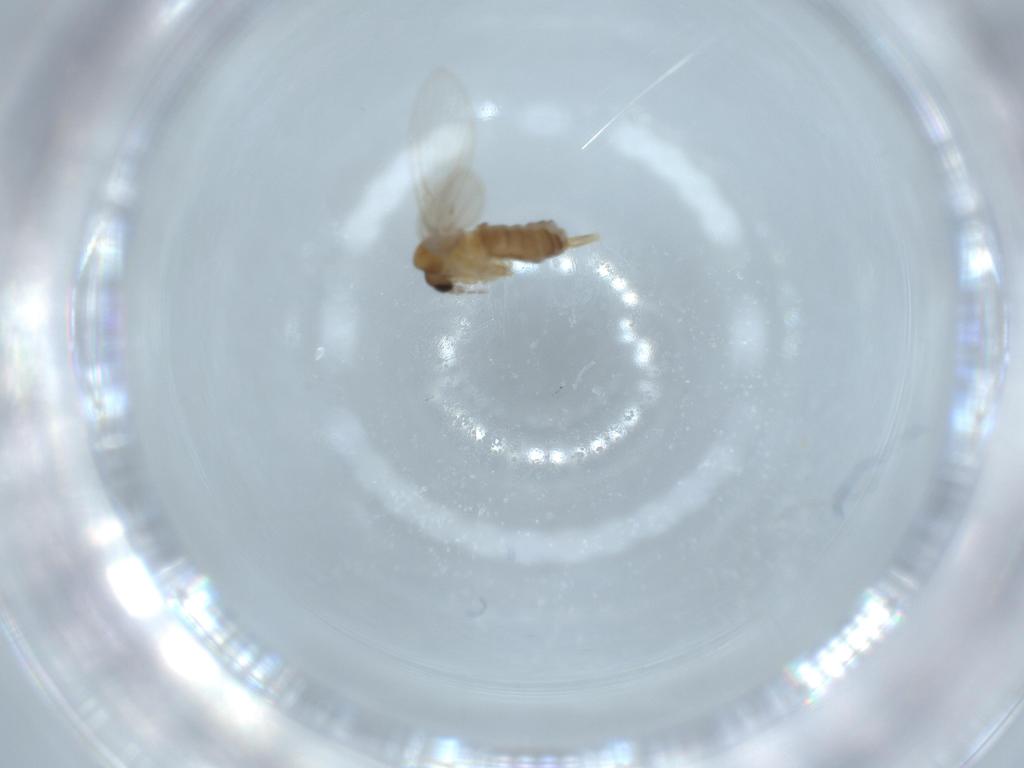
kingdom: Animalia
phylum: Arthropoda
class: Insecta
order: Diptera
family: Psychodidae
